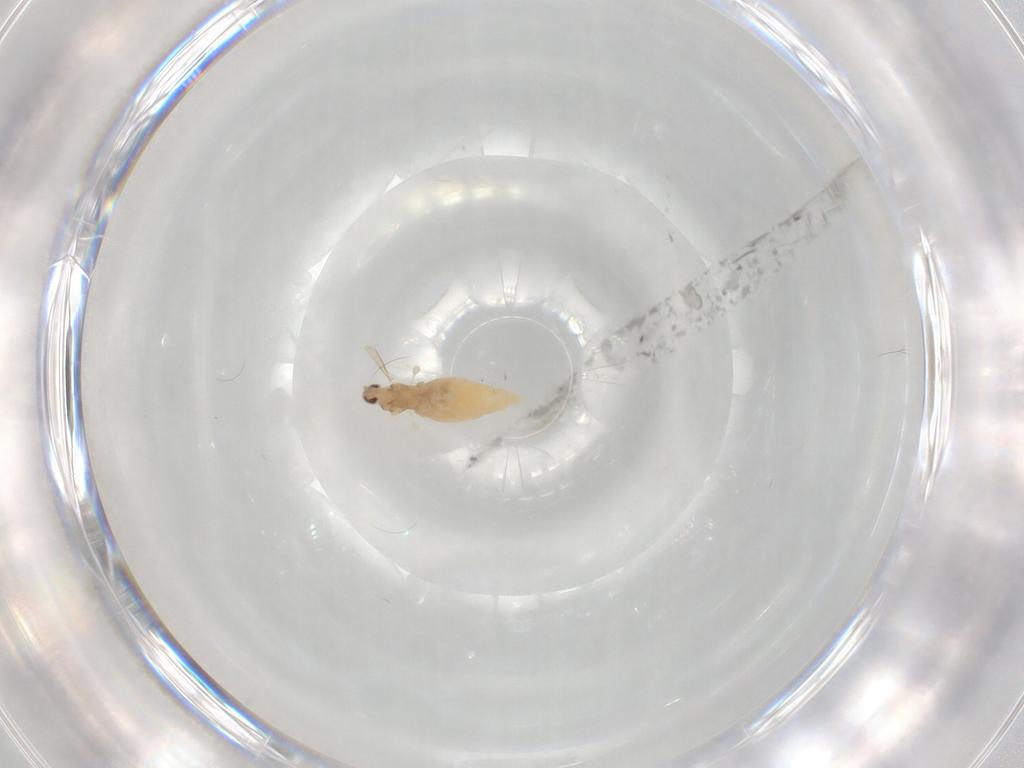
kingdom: Animalia
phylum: Arthropoda
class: Insecta
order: Diptera
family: Cecidomyiidae
